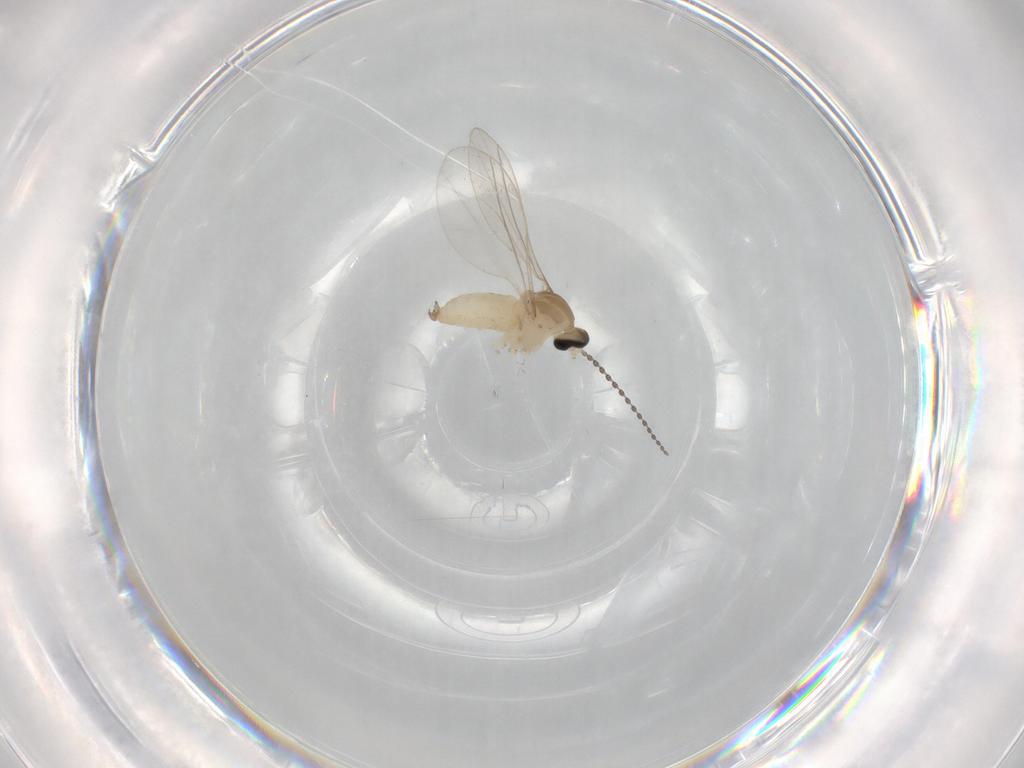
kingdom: Animalia
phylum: Arthropoda
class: Insecta
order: Diptera
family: Cecidomyiidae
